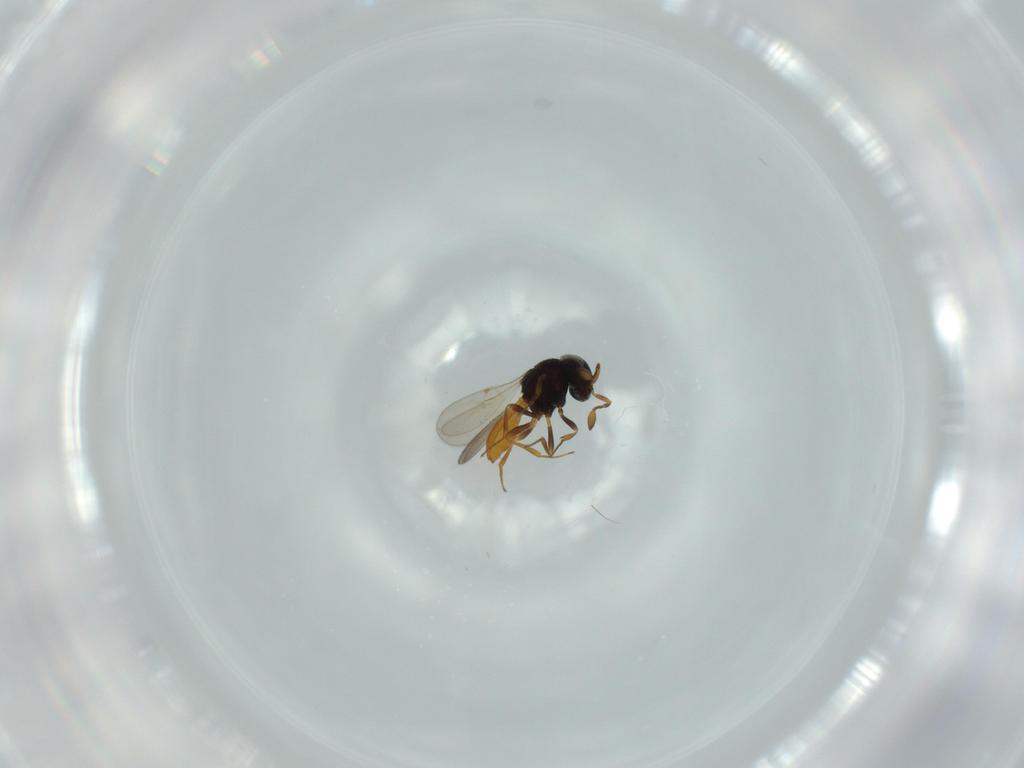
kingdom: Animalia
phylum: Arthropoda
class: Insecta
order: Hymenoptera
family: Scelionidae
